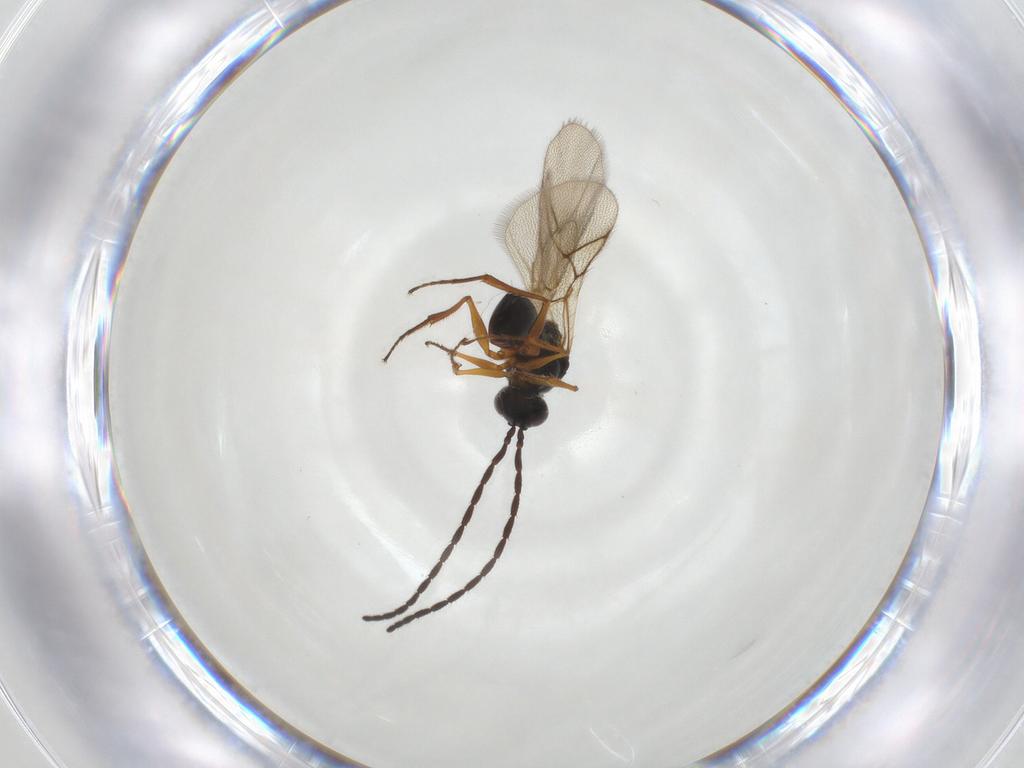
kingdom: Animalia
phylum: Arthropoda
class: Insecta
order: Hymenoptera
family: Figitidae
